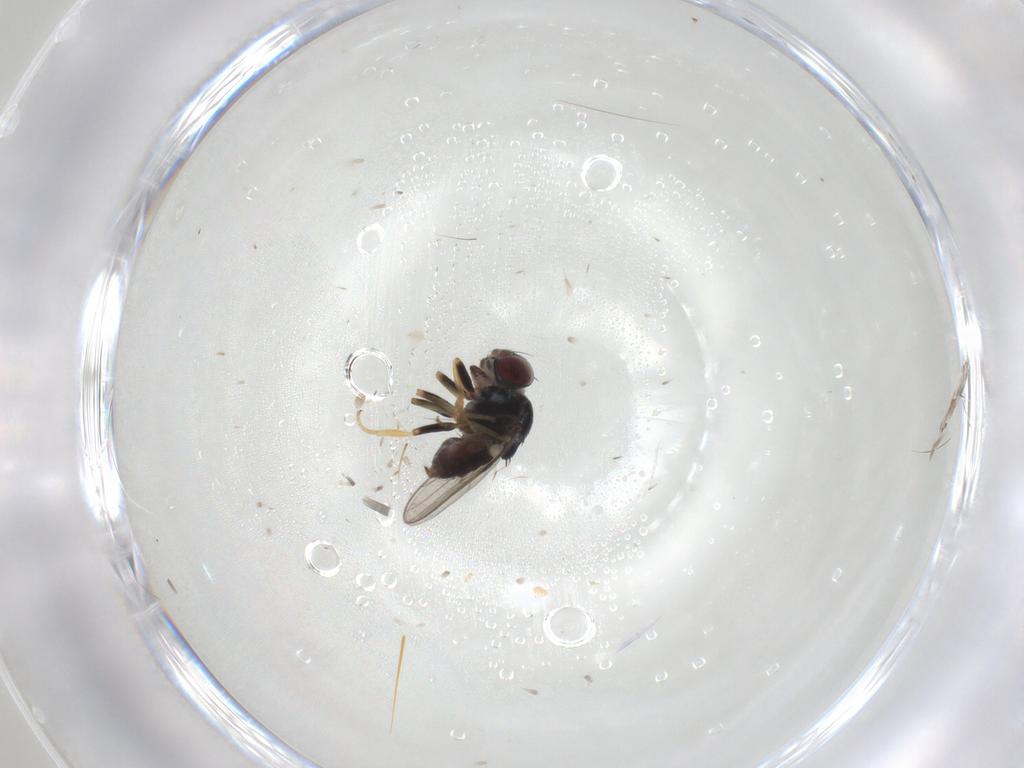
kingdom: Animalia
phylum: Arthropoda
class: Insecta
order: Diptera
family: Chloropidae
